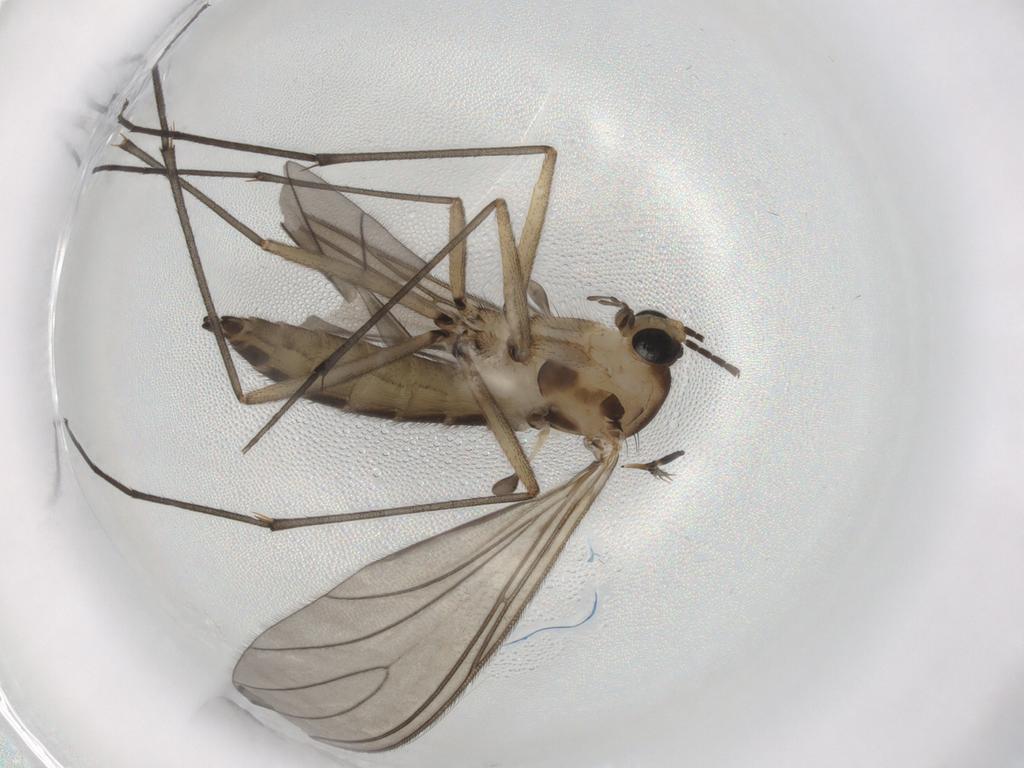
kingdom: Animalia
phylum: Arthropoda
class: Insecta
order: Diptera
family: Sciaridae
